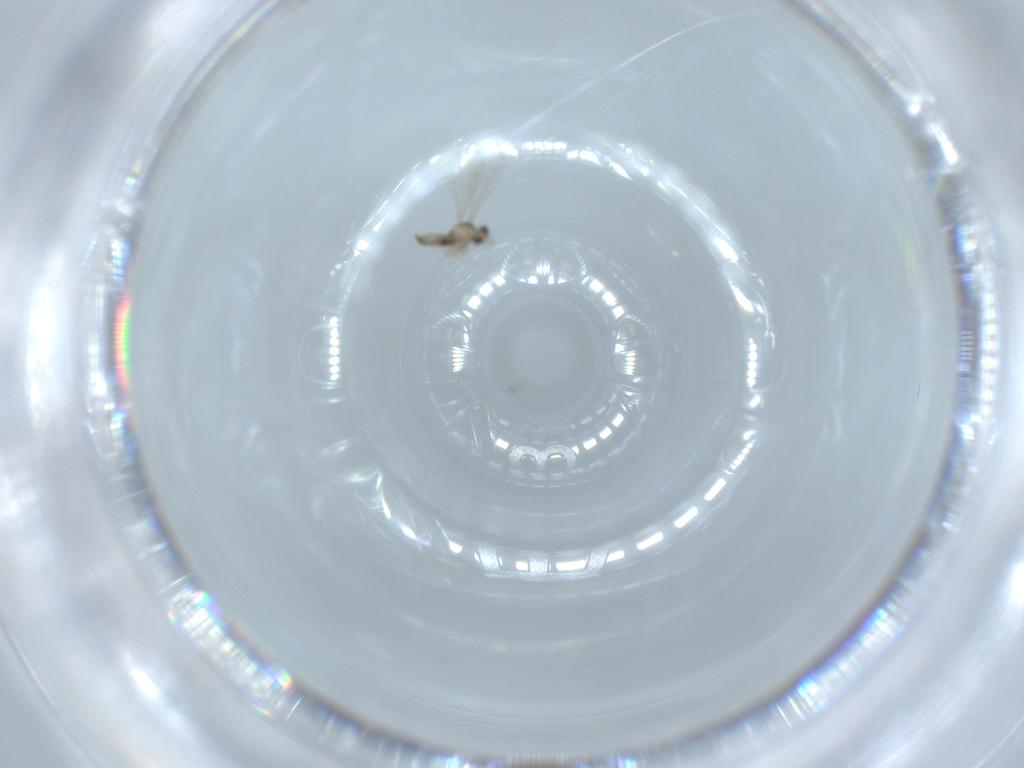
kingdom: Animalia
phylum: Arthropoda
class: Insecta
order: Diptera
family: Cecidomyiidae
